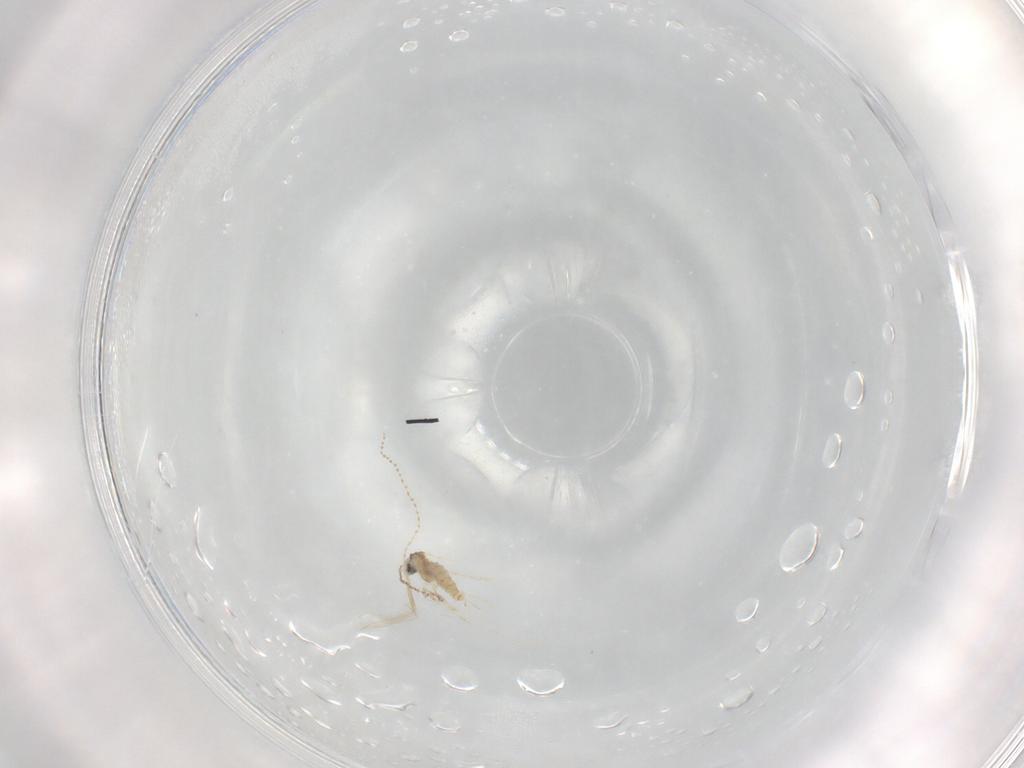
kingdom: Animalia
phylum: Arthropoda
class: Insecta
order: Diptera
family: Cecidomyiidae
